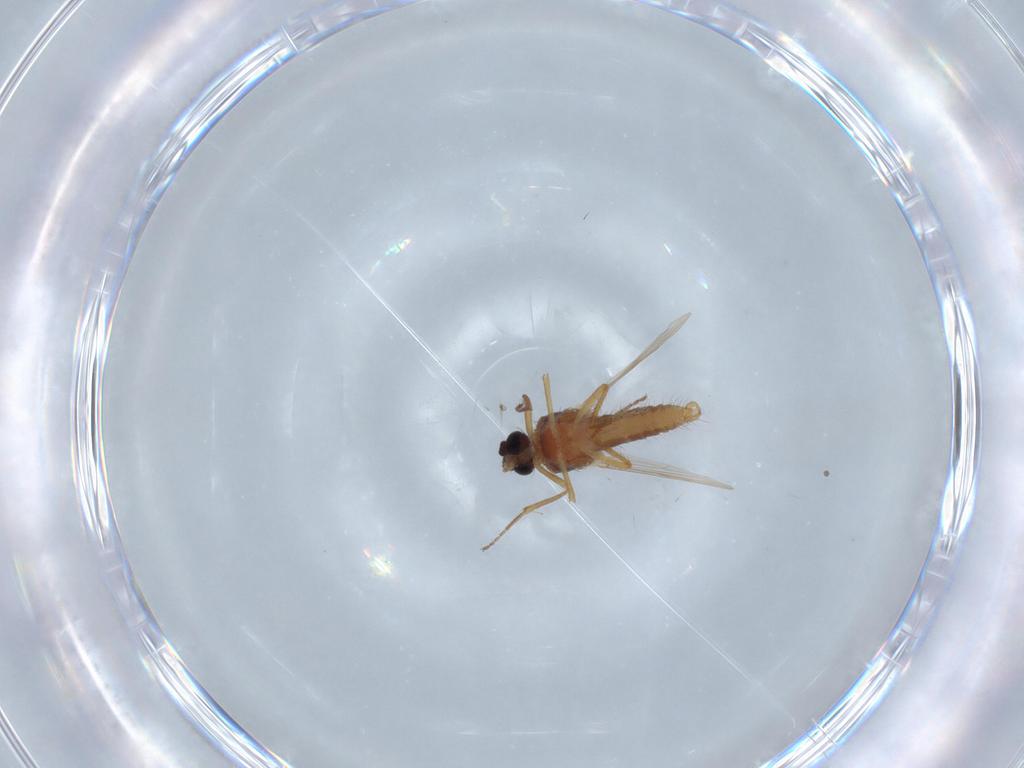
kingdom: Animalia
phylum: Arthropoda
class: Insecta
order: Diptera
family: Ceratopogonidae
